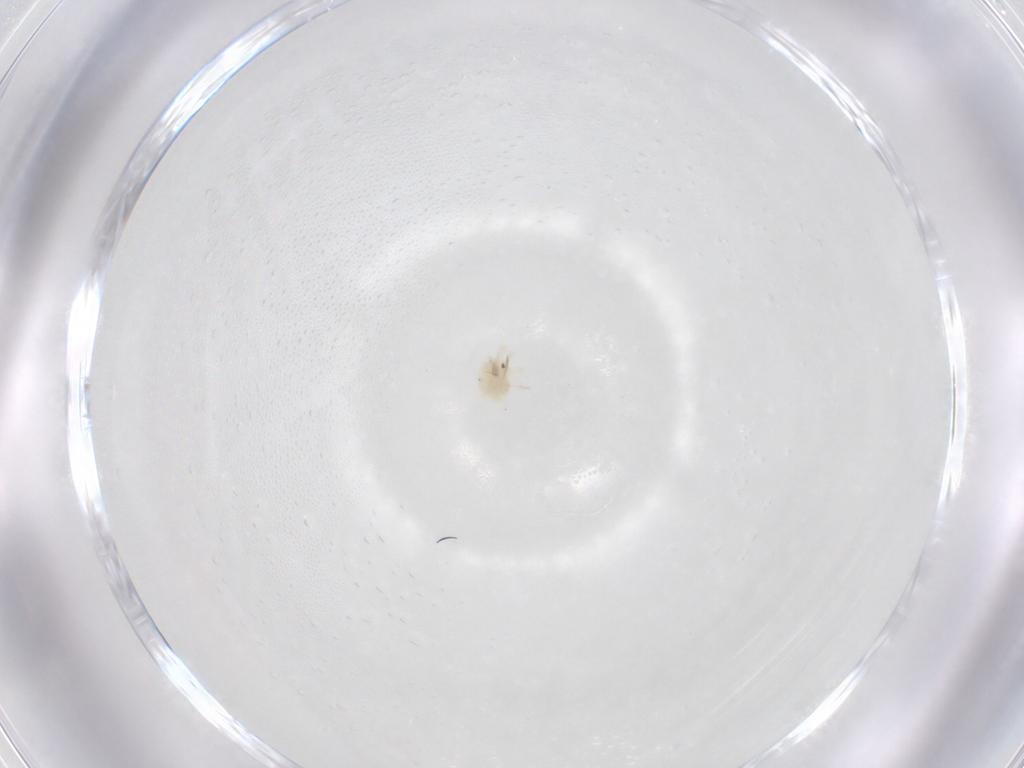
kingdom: Animalia
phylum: Arthropoda
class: Arachnida
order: Trombidiformes
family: Anystidae
